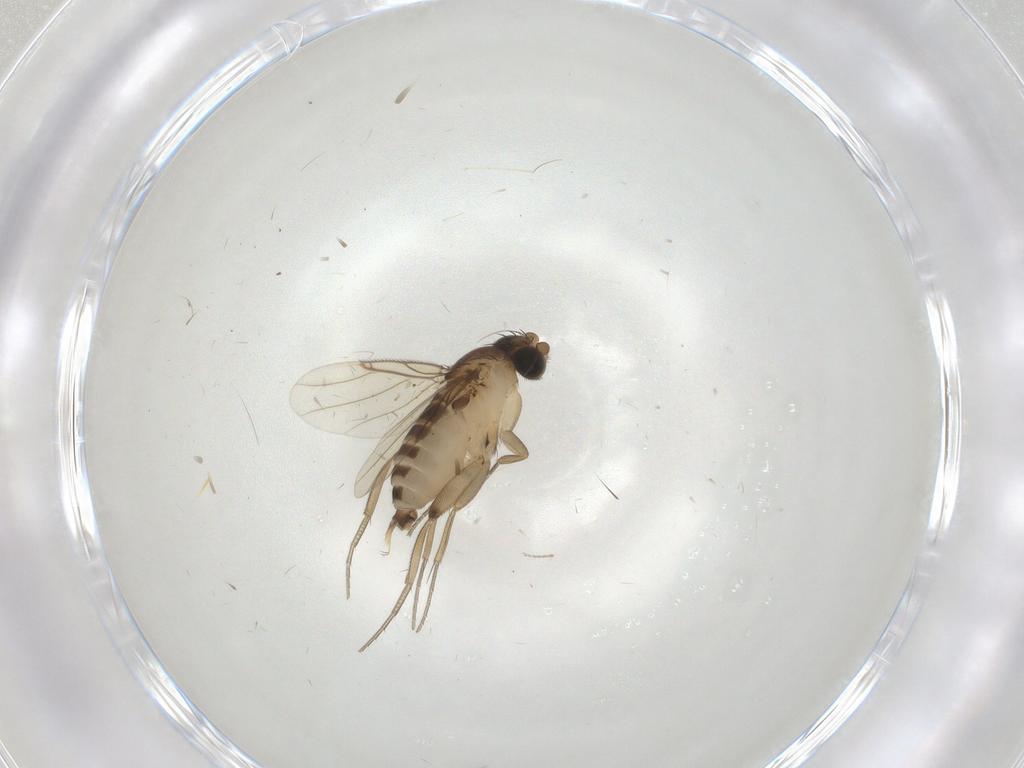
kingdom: Animalia
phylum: Arthropoda
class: Insecta
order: Diptera
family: Phoridae
